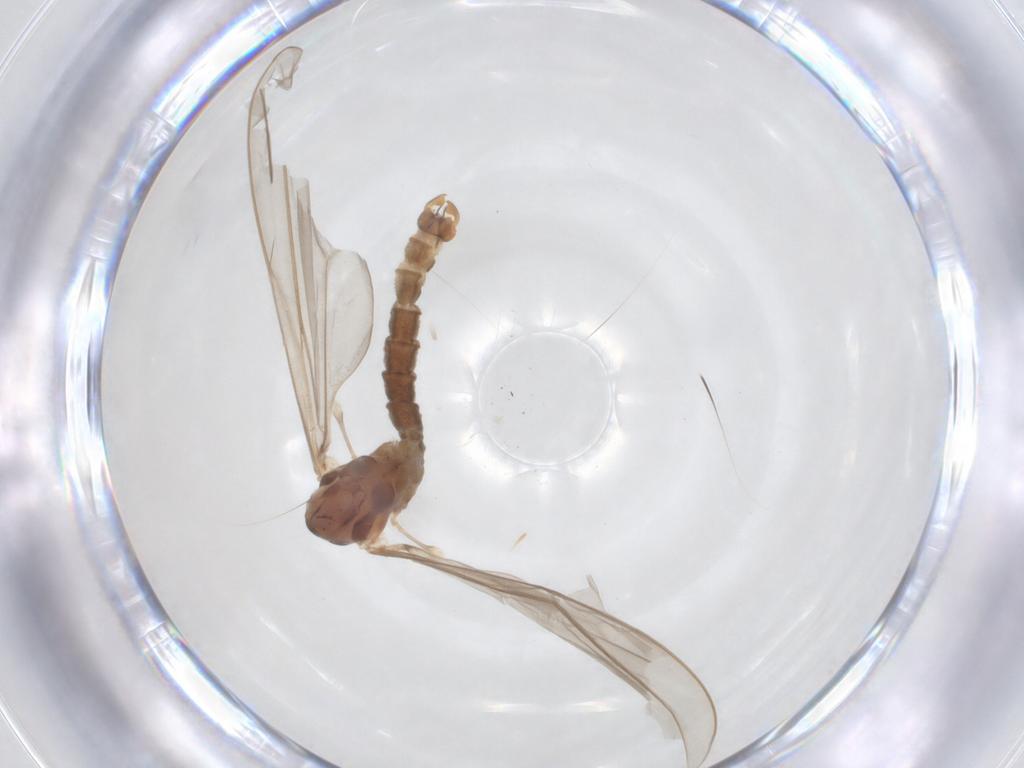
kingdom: Animalia
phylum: Arthropoda
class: Insecta
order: Diptera
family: Cecidomyiidae
